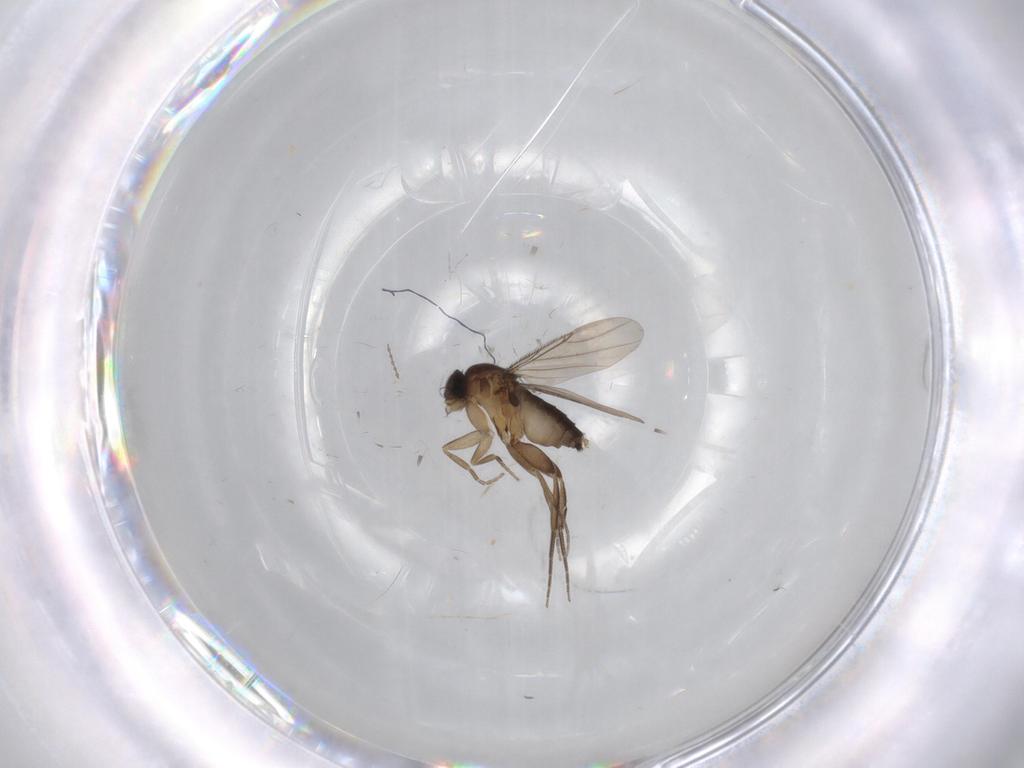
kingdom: Animalia
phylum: Arthropoda
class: Insecta
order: Diptera
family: Phoridae
